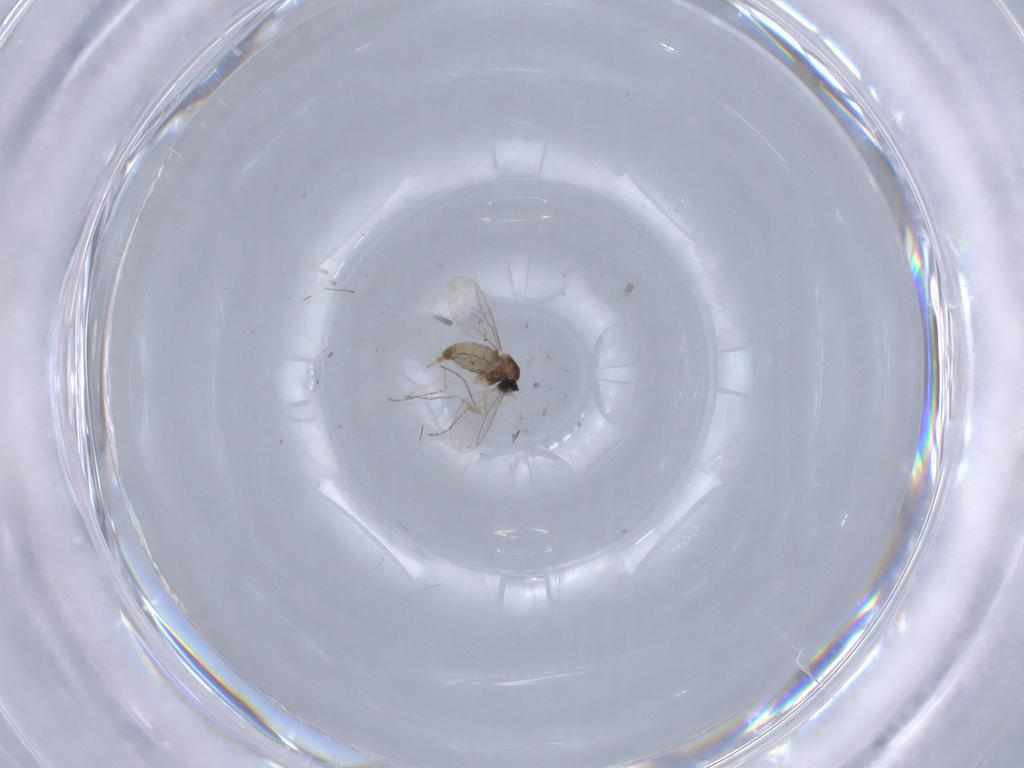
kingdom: Animalia
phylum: Arthropoda
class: Insecta
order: Diptera
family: Cecidomyiidae
